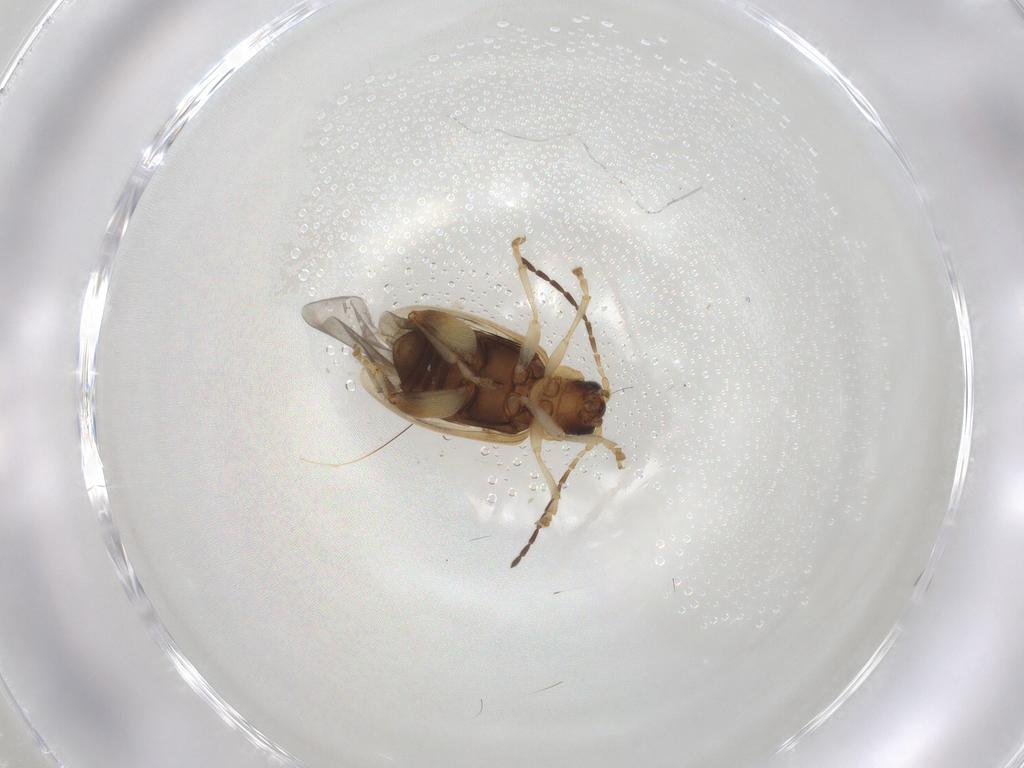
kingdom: Animalia
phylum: Arthropoda
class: Insecta
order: Coleoptera
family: Chrysomelidae
